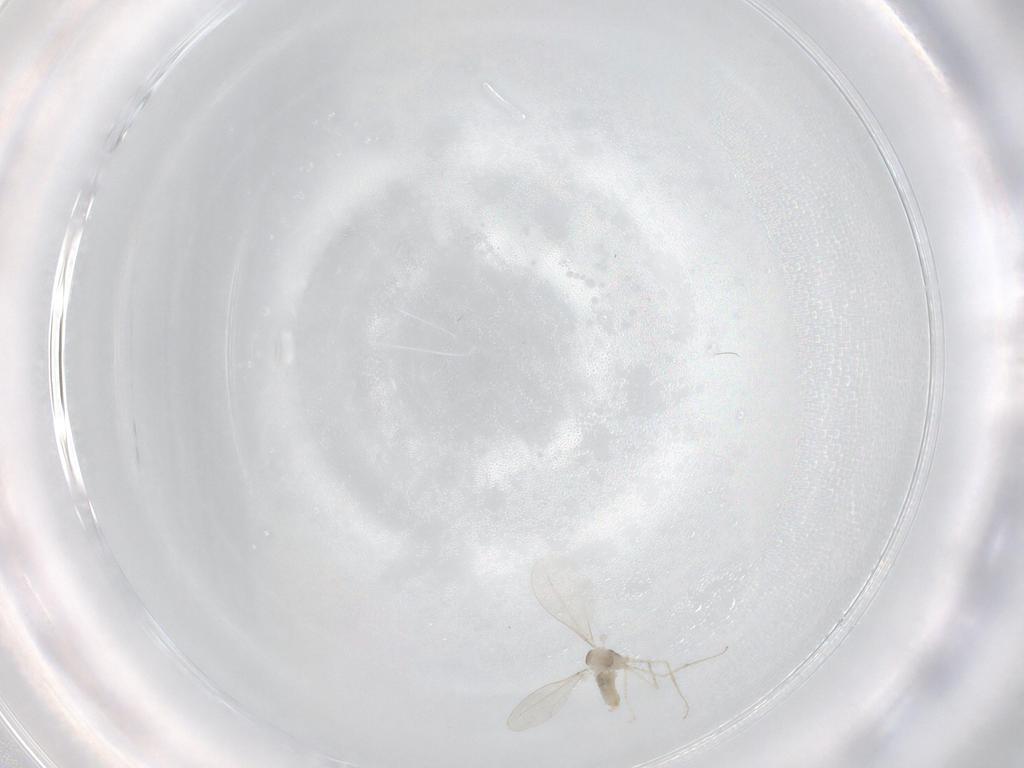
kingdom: Animalia
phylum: Arthropoda
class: Insecta
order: Diptera
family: Cecidomyiidae
